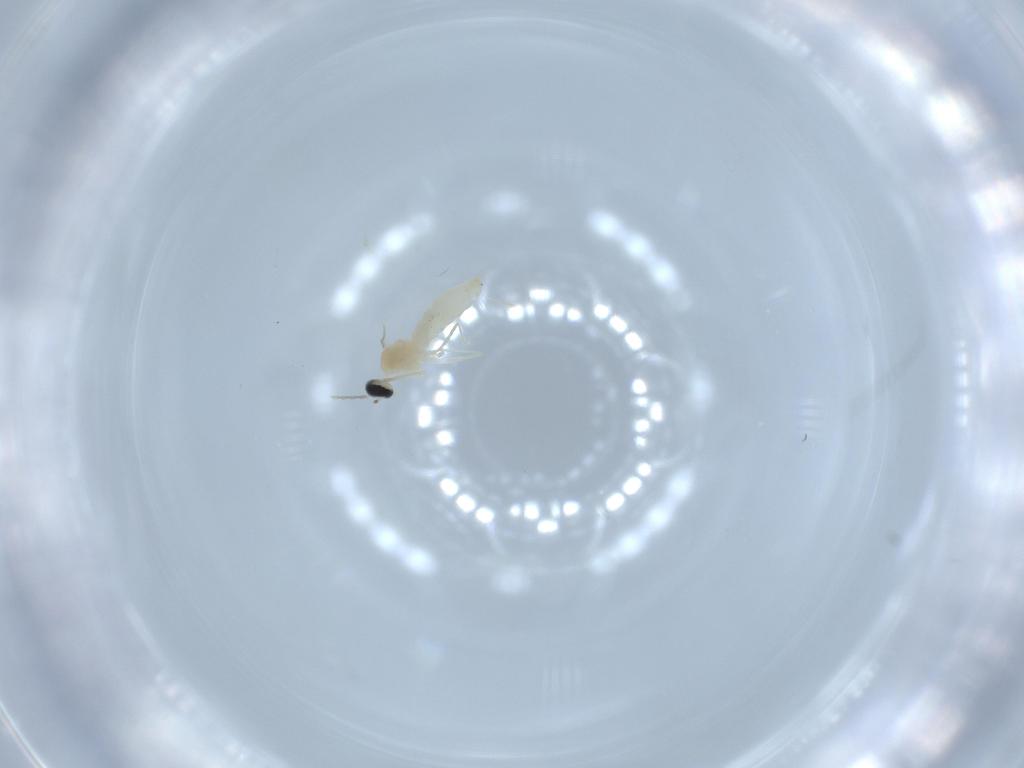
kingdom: Animalia
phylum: Arthropoda
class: Insecta
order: Diptera
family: Cecidomyiidae
